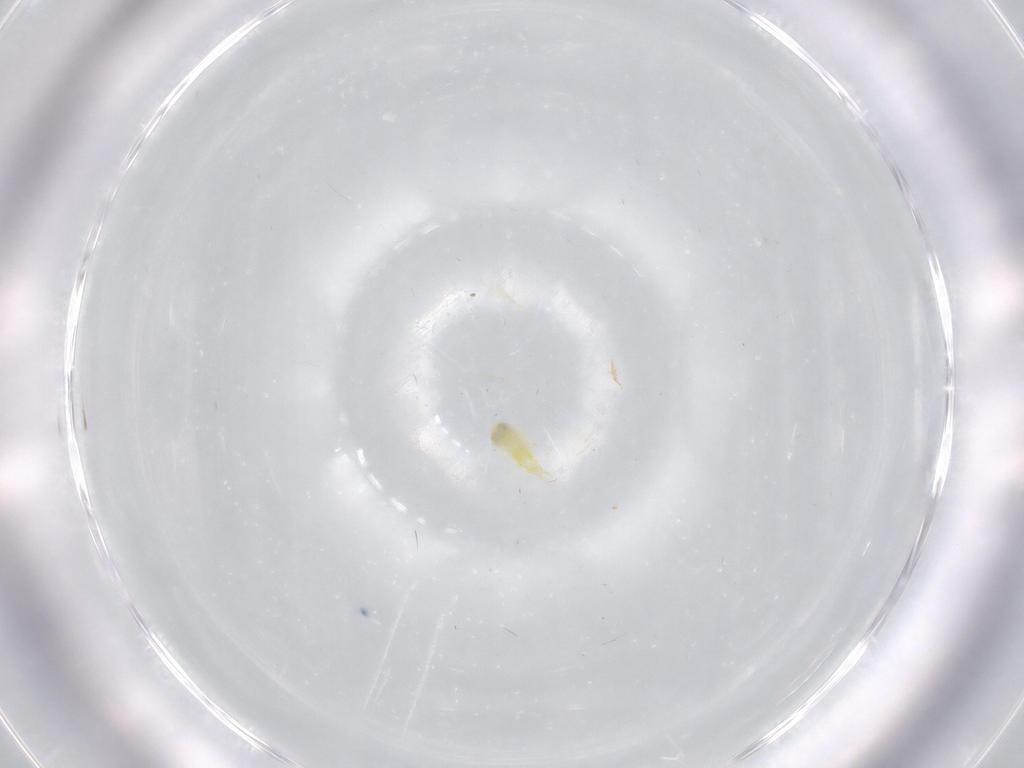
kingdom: Animalia
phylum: Arthropoda
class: Insecta
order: Hemiptera
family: Aleyrodidae
